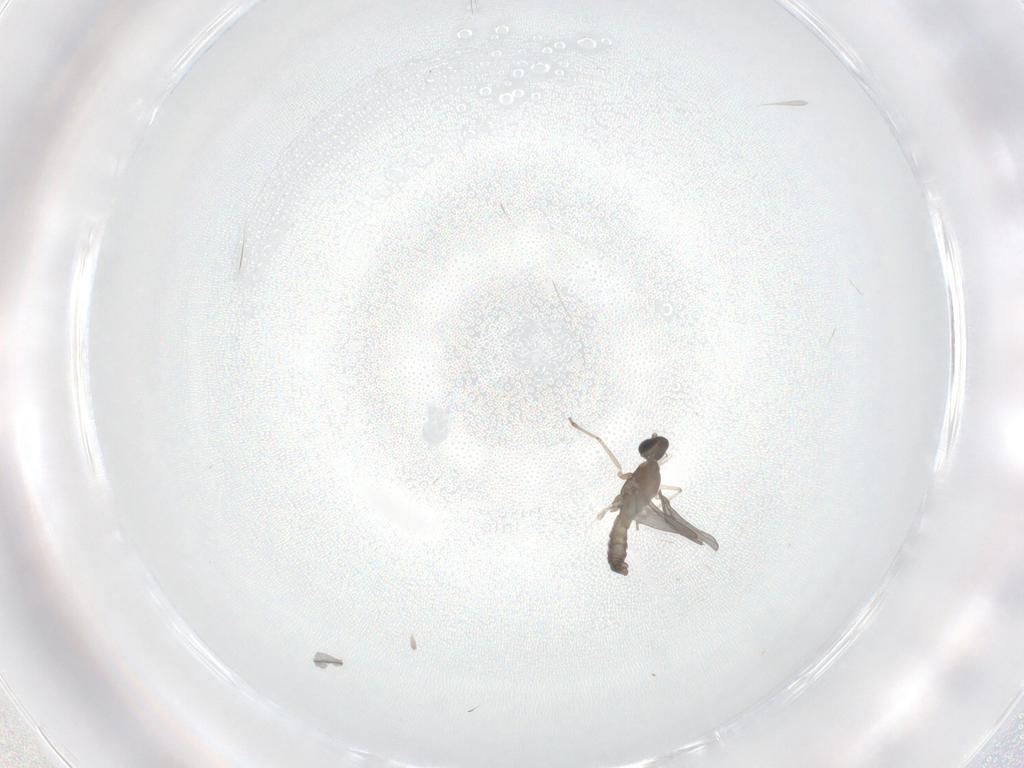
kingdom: Animalia
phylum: Arthropoda
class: Insecta
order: Diptera
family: Cecidomyiidae
